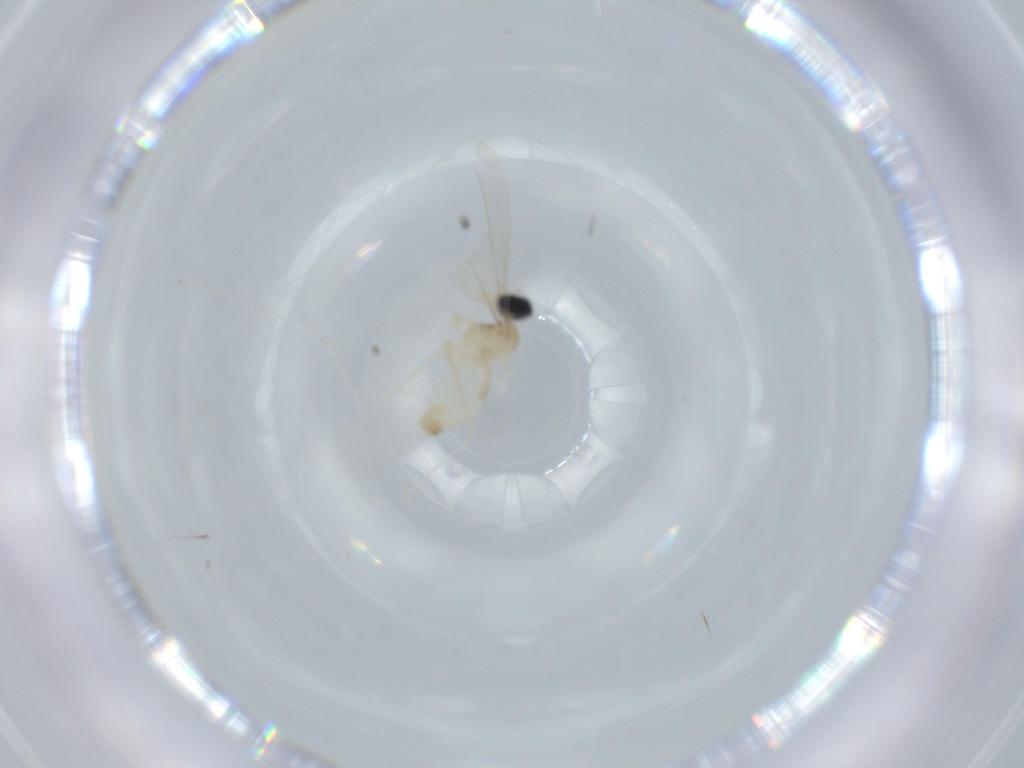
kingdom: Animalia
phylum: Arthropoda
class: Insecta
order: Diptera
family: Cecidomyiidae
